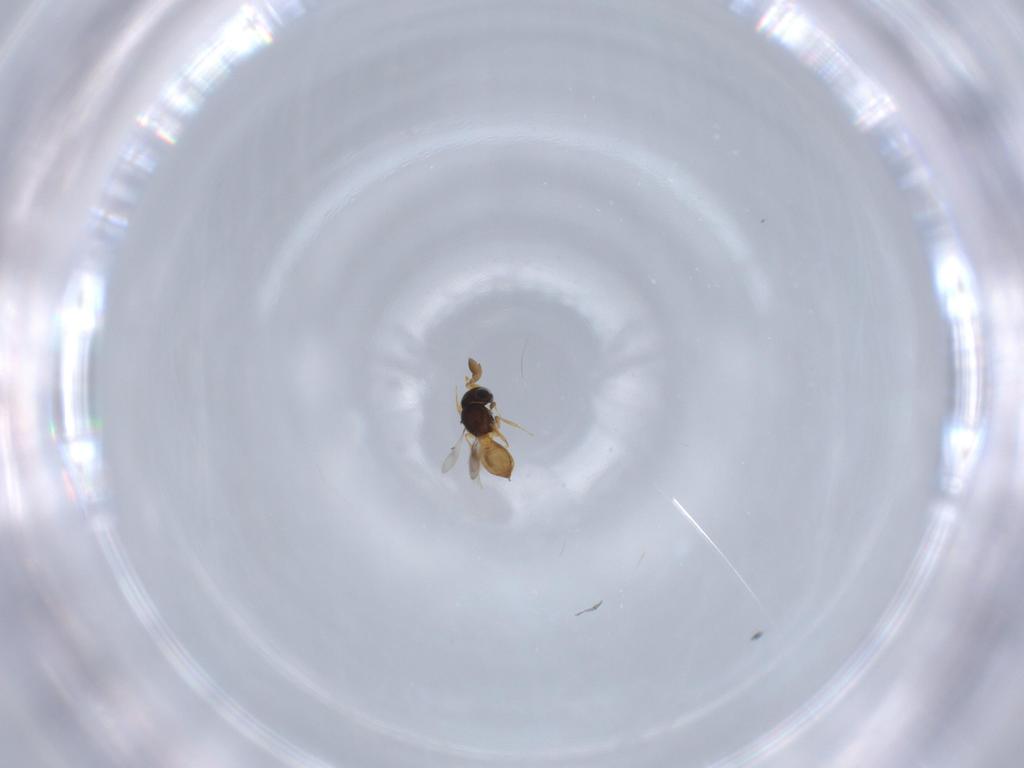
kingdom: Animalia
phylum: Arthropoda
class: Insecta
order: Hymenoptera
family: Scelionidae
